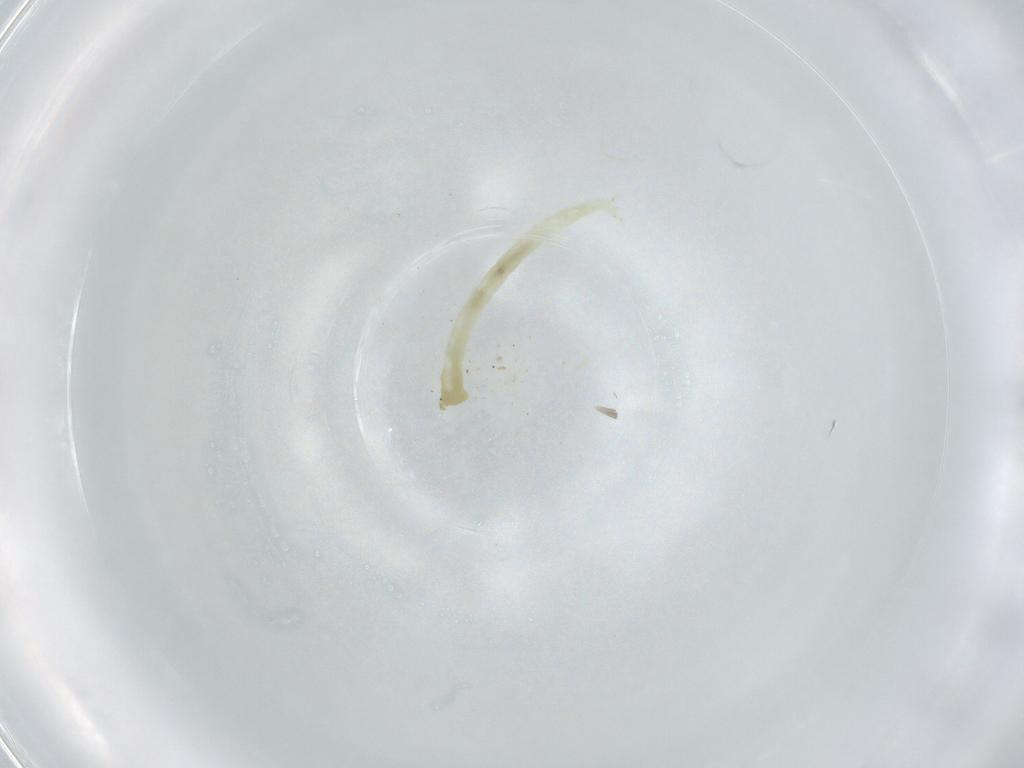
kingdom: Animalia
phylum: Arthropoda
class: Insecta
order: Diptera
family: Chironomidae
